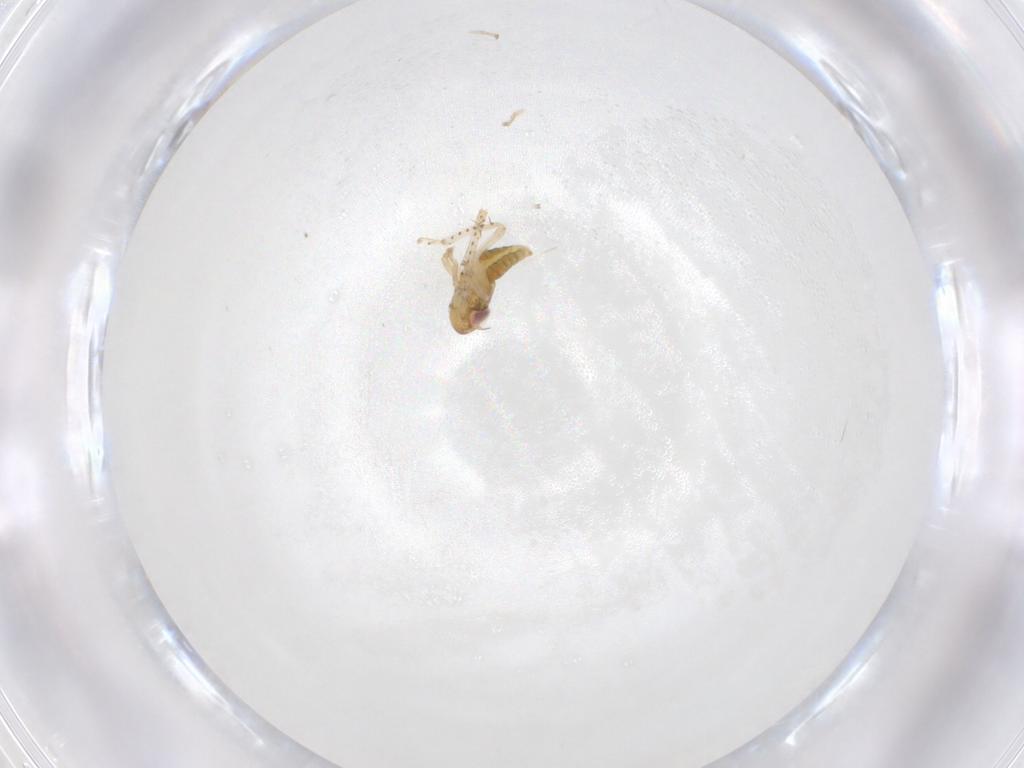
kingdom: Animalia
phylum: Arthropoda
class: Insecta
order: Hemiptera
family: Cicadellidae
